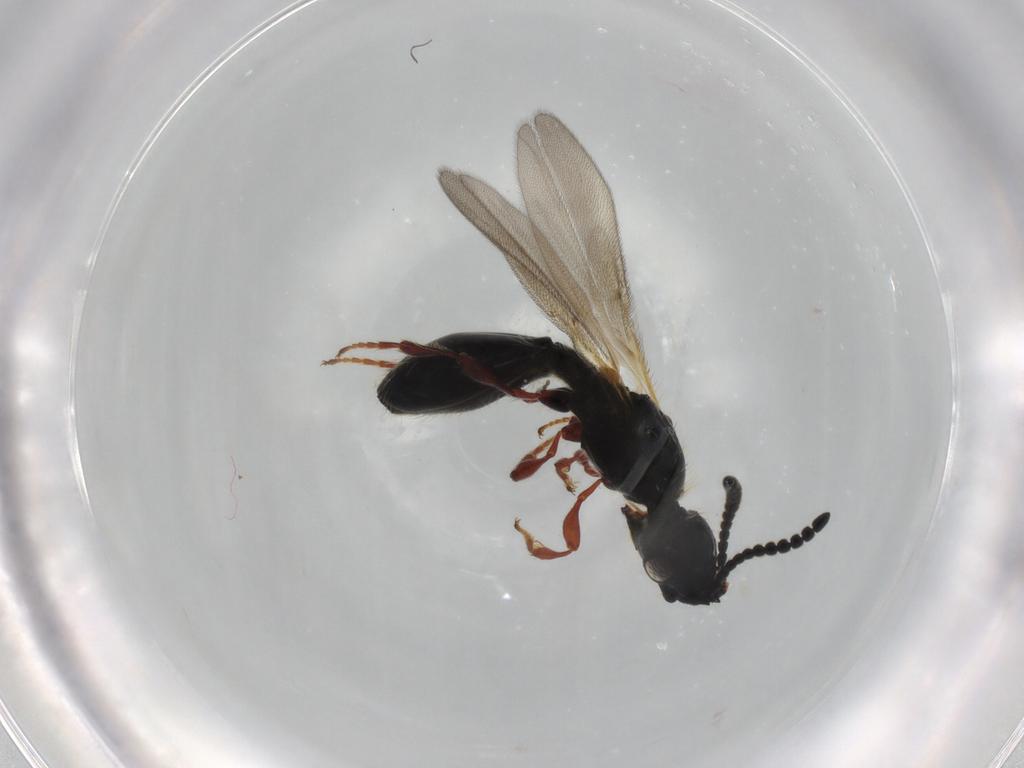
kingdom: Animalia
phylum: Arthropoda
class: Insecta
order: Hymenoptera
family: Diapriidae
